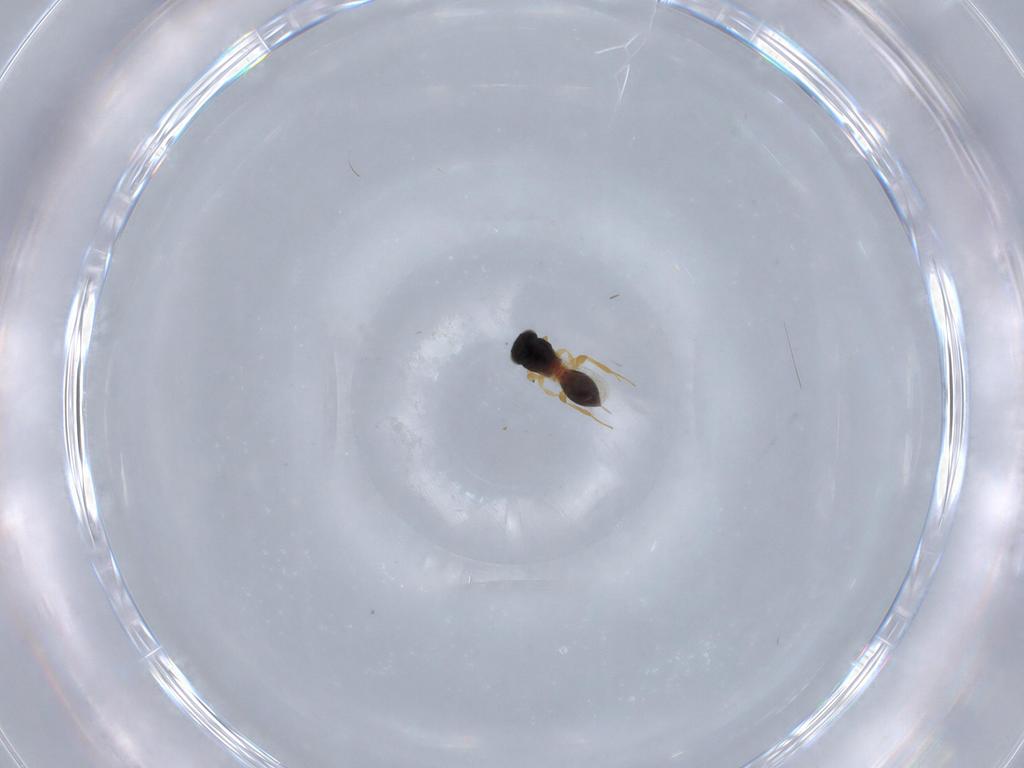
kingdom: Animalia
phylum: Arthropoda
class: Insecta
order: Hymenoptera
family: Platygastridae
